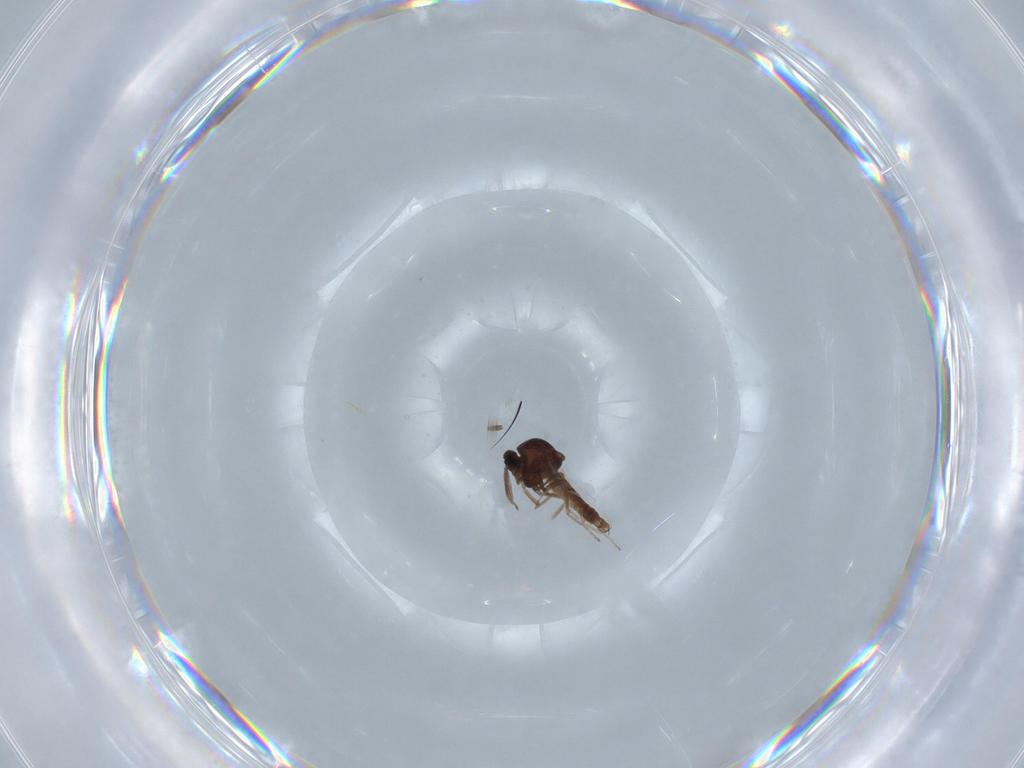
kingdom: Animalia
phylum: Arthropoda
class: Insecta
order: Diptera
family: Ceratopogonidae
